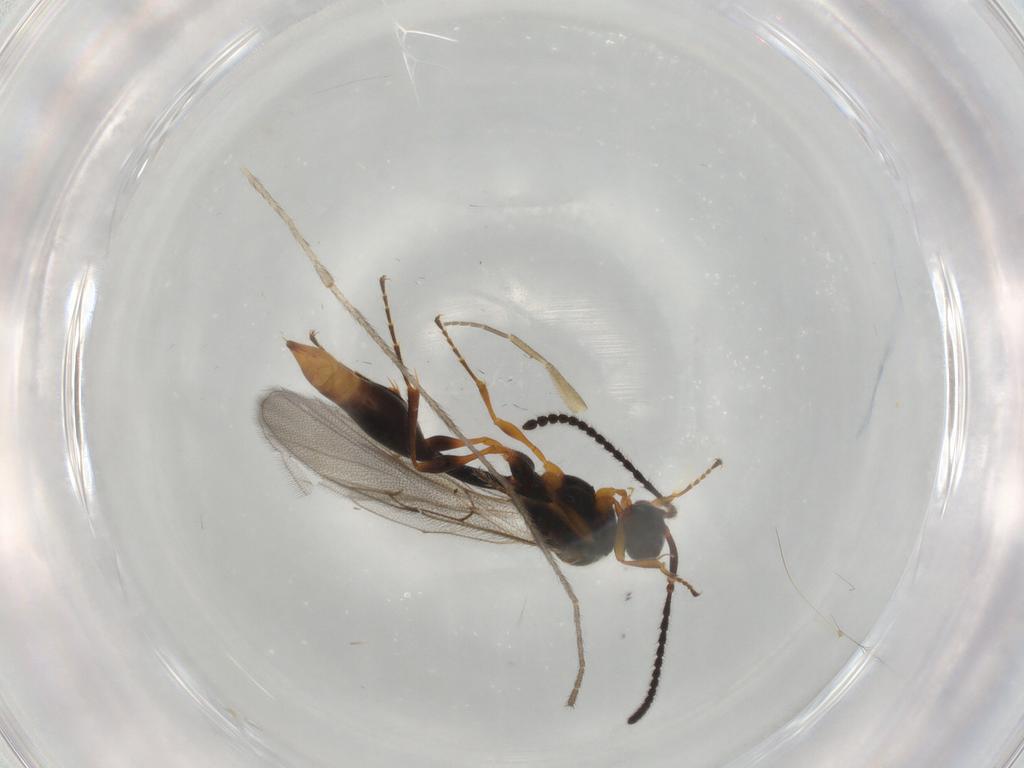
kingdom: Animalia
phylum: Arthropoda
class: Insecta
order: Hymenoptera
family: Diapriidae
